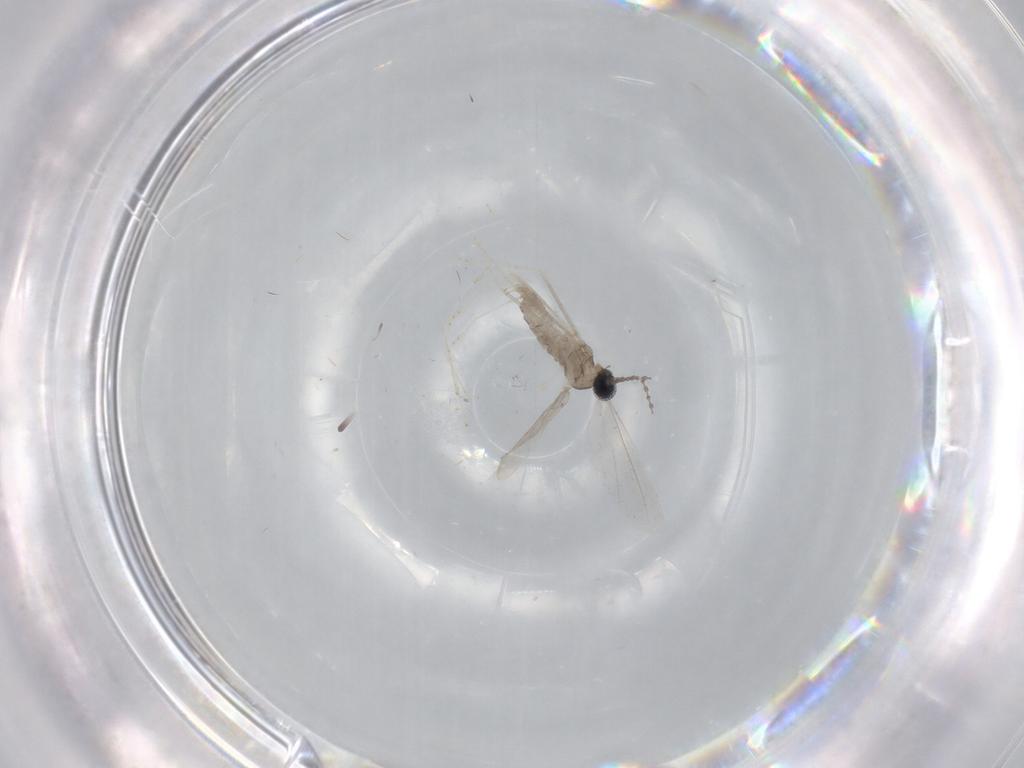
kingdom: Animalia
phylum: Arthropoda
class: Insecta
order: Diptera
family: Cecidomyiidae
